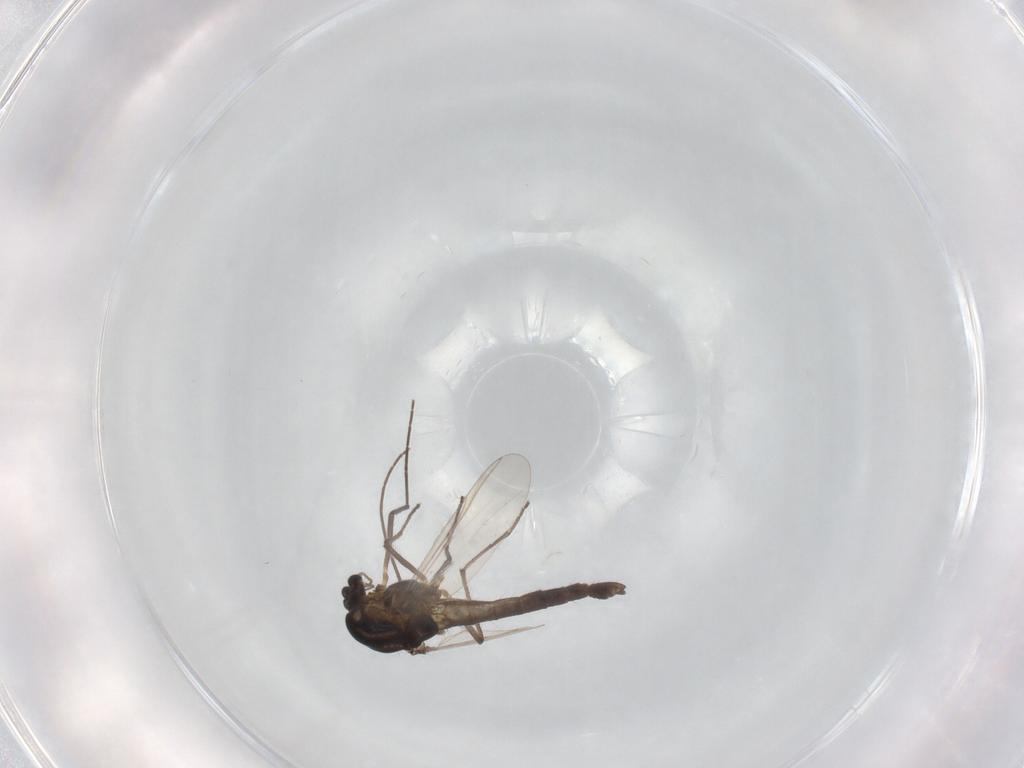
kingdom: Animalia
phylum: Arthropoda
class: Insecta
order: Diptera
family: Chironomidae
